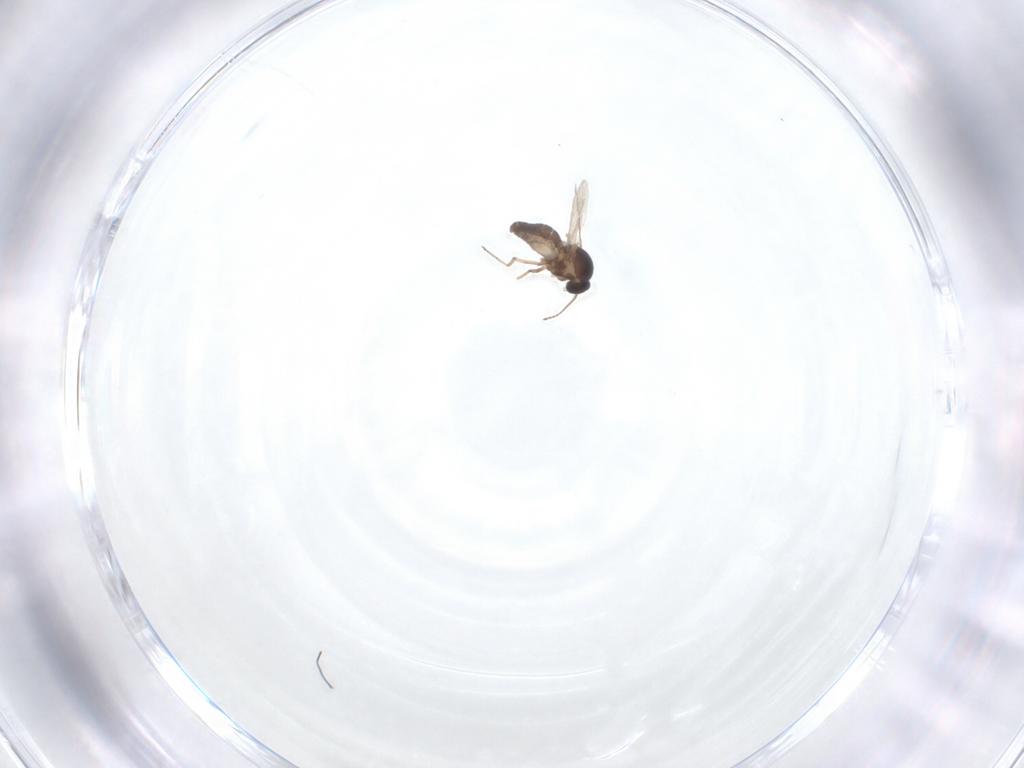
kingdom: Animalia
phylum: Arthropoda
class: Insecta
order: Diptera
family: Ceratopogonidae
